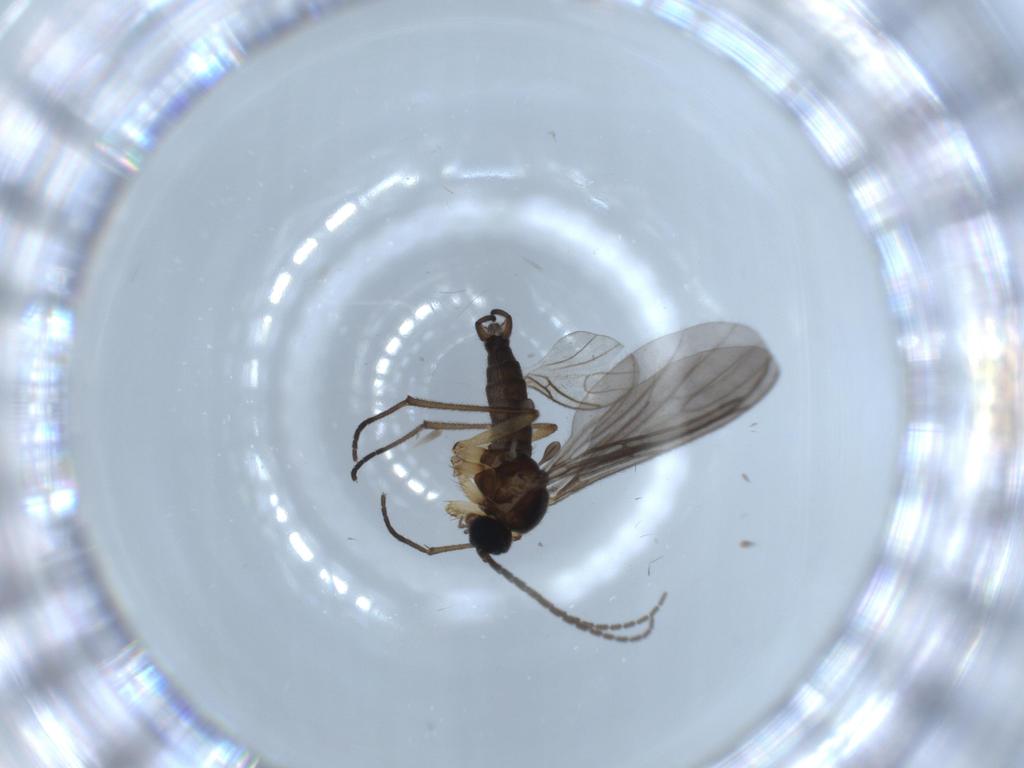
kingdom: Animalia
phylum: Arthropoda
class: Insecta
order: Diptera
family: Sciaridae
